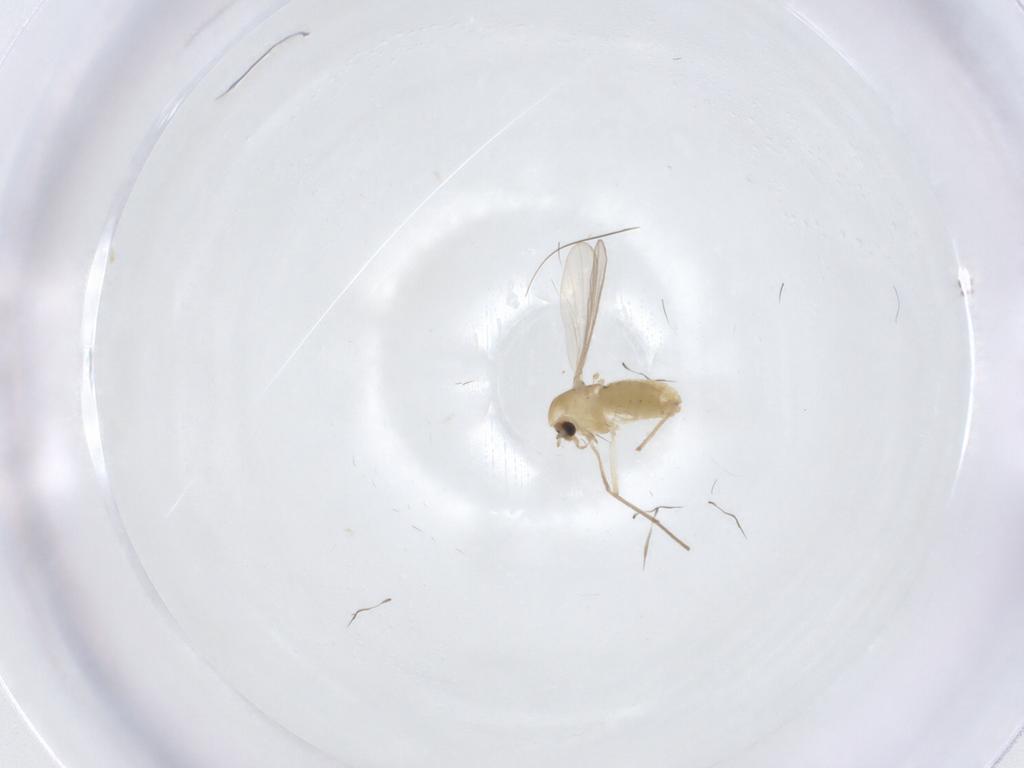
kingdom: Animalia
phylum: Arthropoda
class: Insecta
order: Diptera
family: Cecidomyiidae
